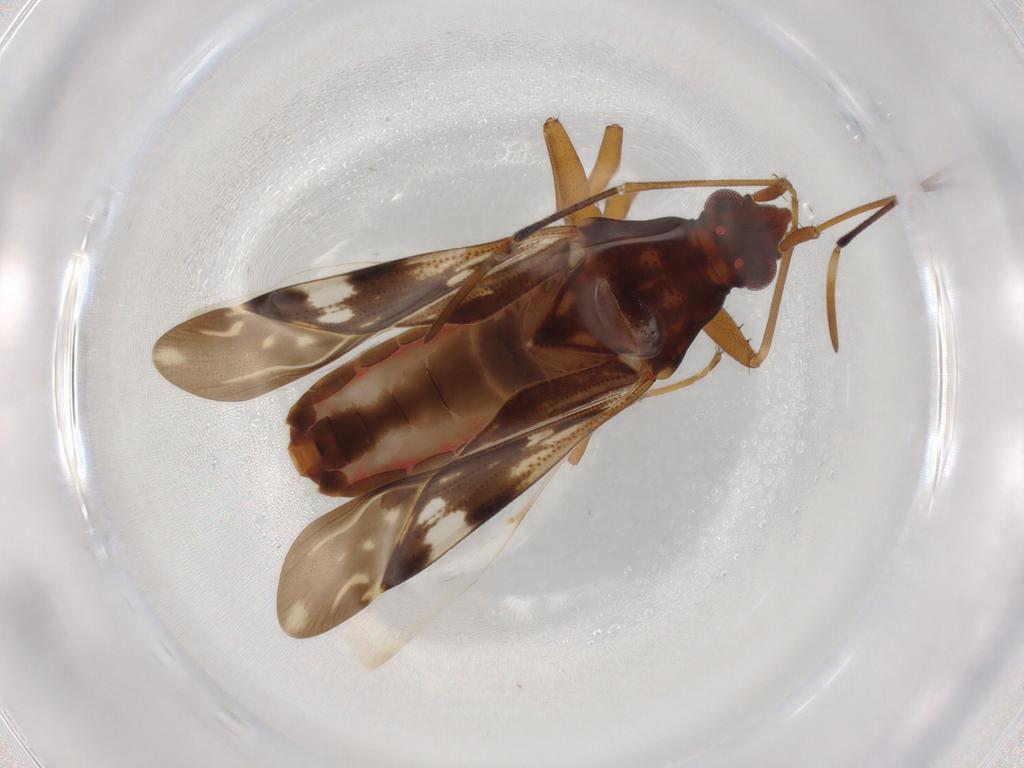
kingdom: Animalia
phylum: Arthropoda
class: Insecta
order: Hemiptera
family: Rhyparochromidae
